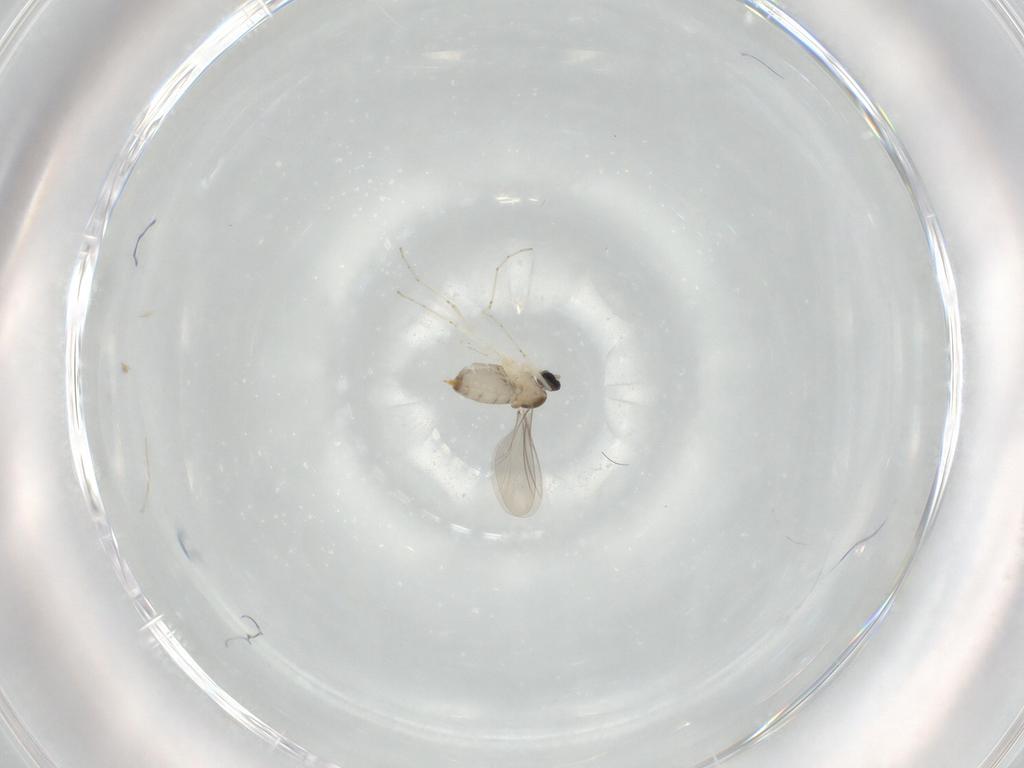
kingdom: Animalia
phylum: Arthropoda
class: Insecta
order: Diptera
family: Cecidomyiidae
